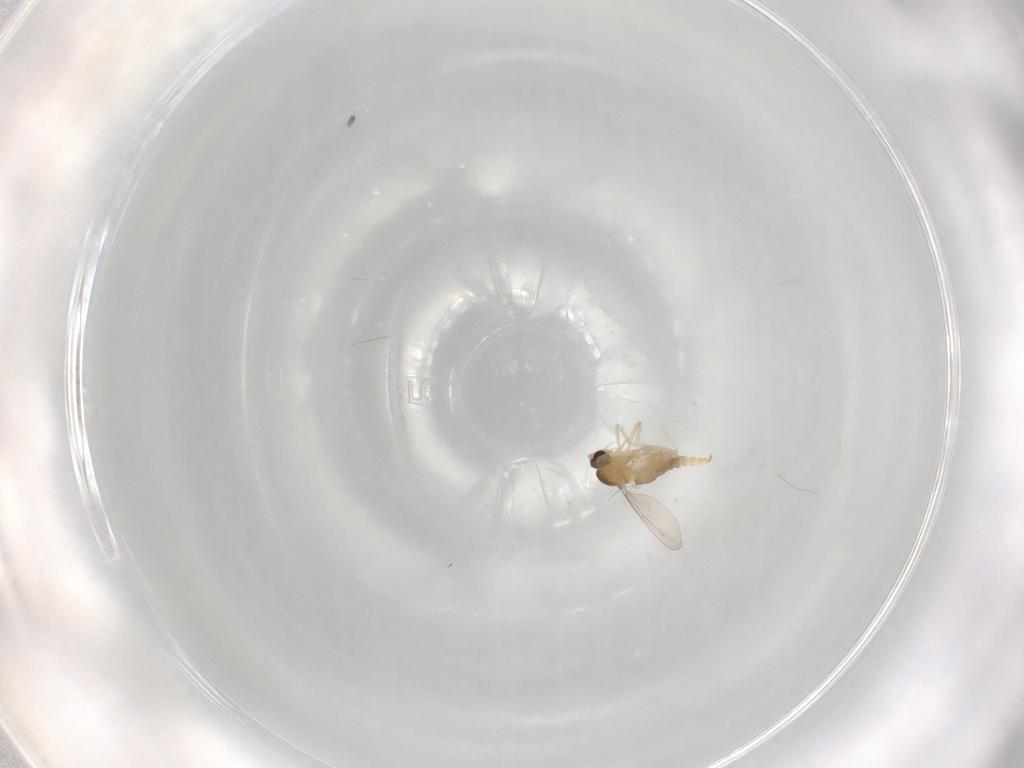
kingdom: Animalia
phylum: Arthropoda
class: Insecta
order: Diptera
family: Cecidomyiidae
